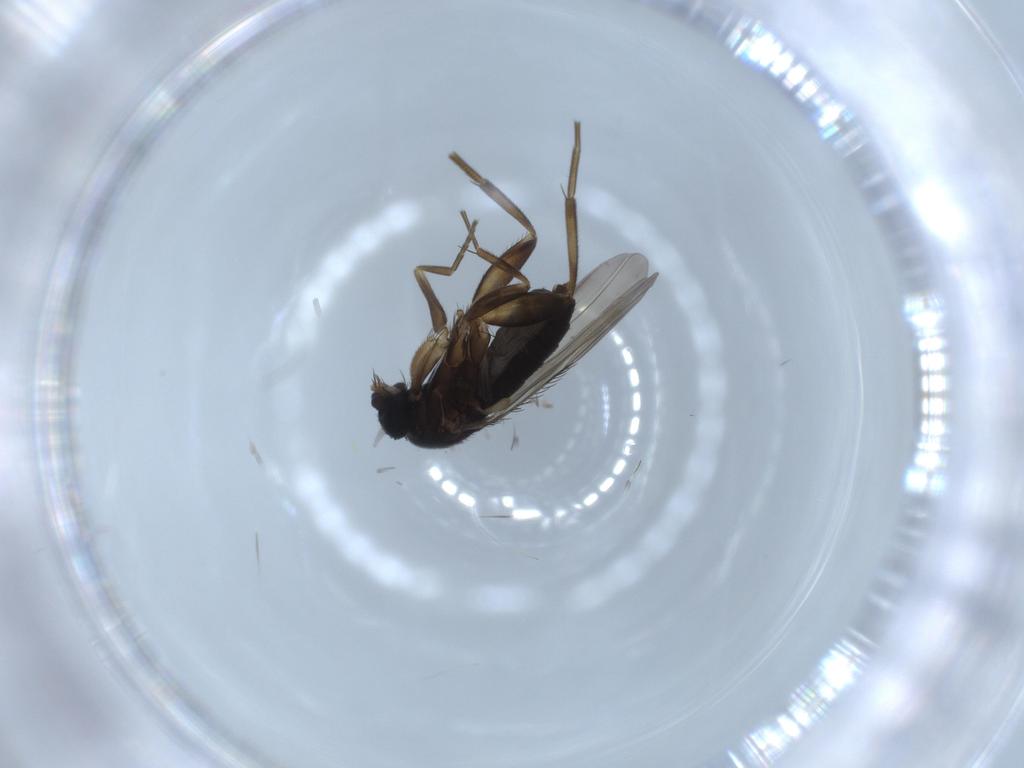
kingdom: Animalia
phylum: Arthropoda
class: Insecta
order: Diptera
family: Phoridae
